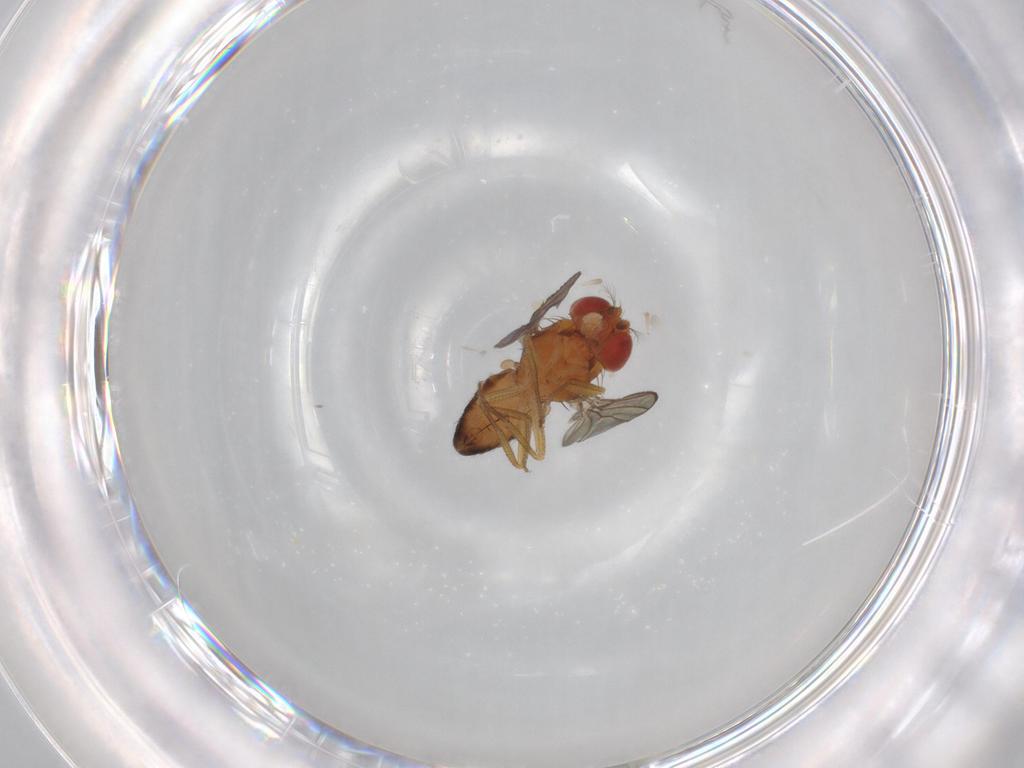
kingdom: Animalia
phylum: Arthropoda
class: Insecta
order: Diptera
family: Drosophilidae
